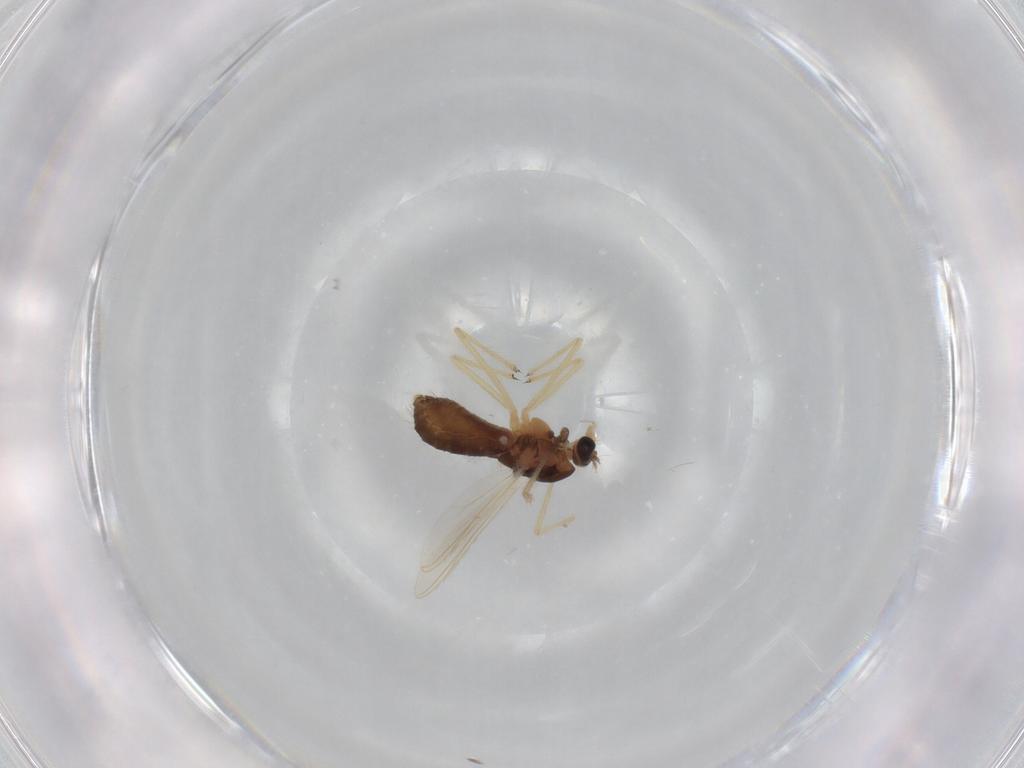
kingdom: Animalia
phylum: Arthropoda
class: Insecta
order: Diptera
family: Chironomidae
